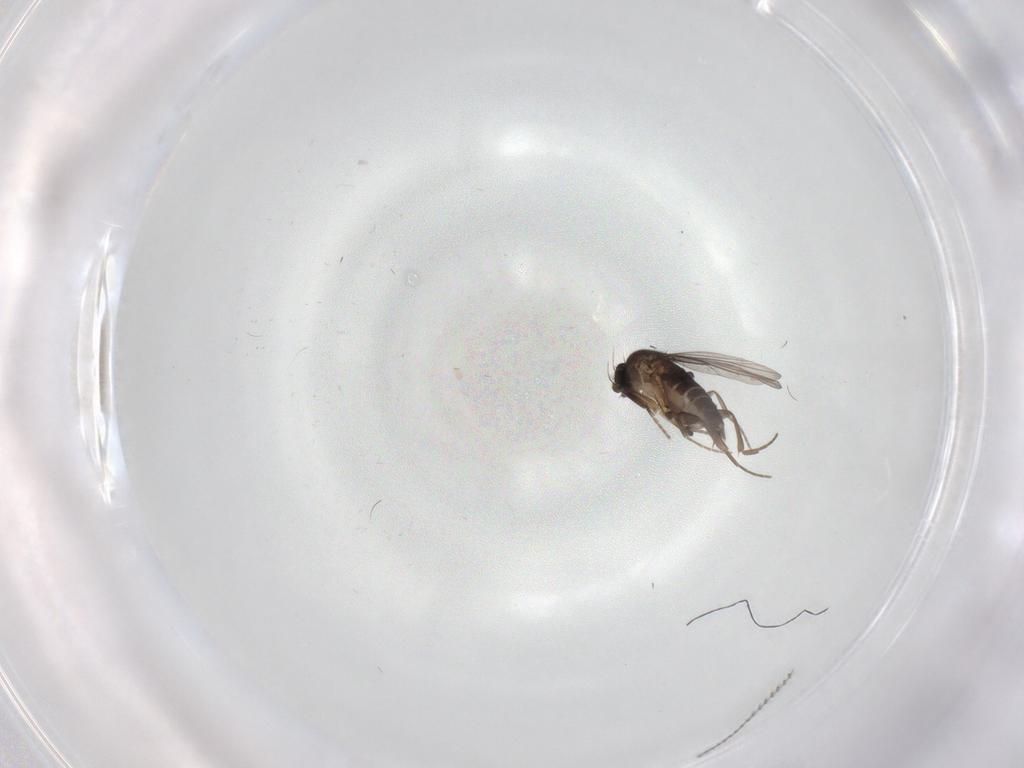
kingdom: Animalia
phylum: Arthropoda
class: Insecta
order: Diptera
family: Phoridae
